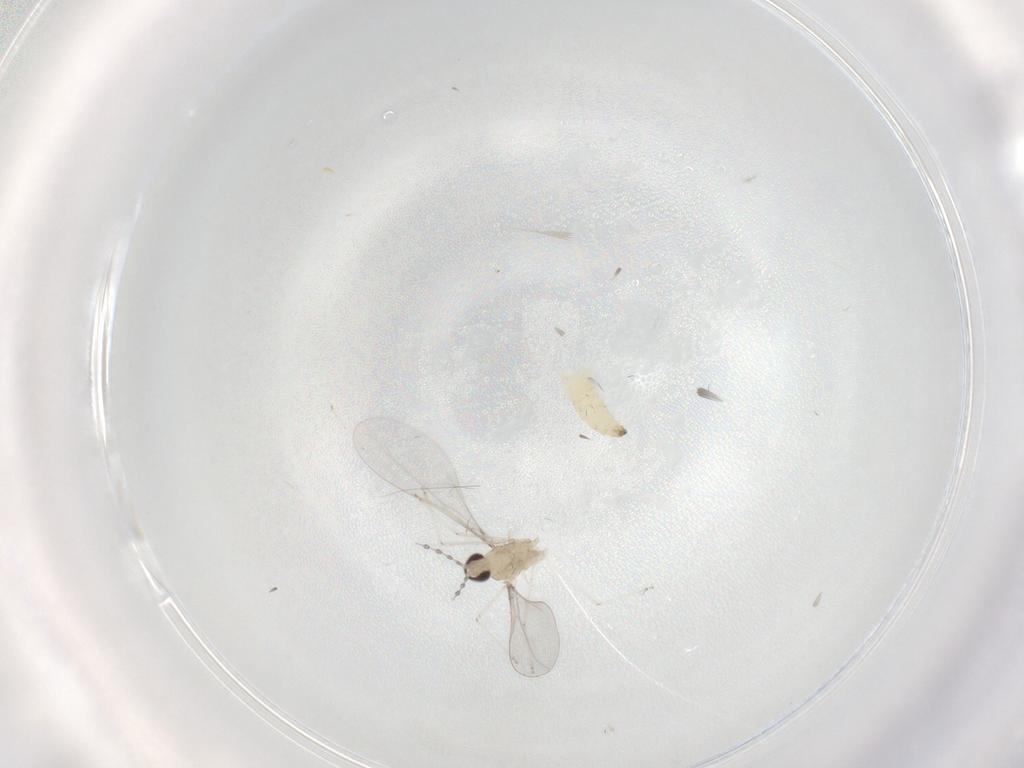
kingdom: Animalia
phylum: Arthropoda
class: Insecta
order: Diptera
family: Cecidomyiidae
